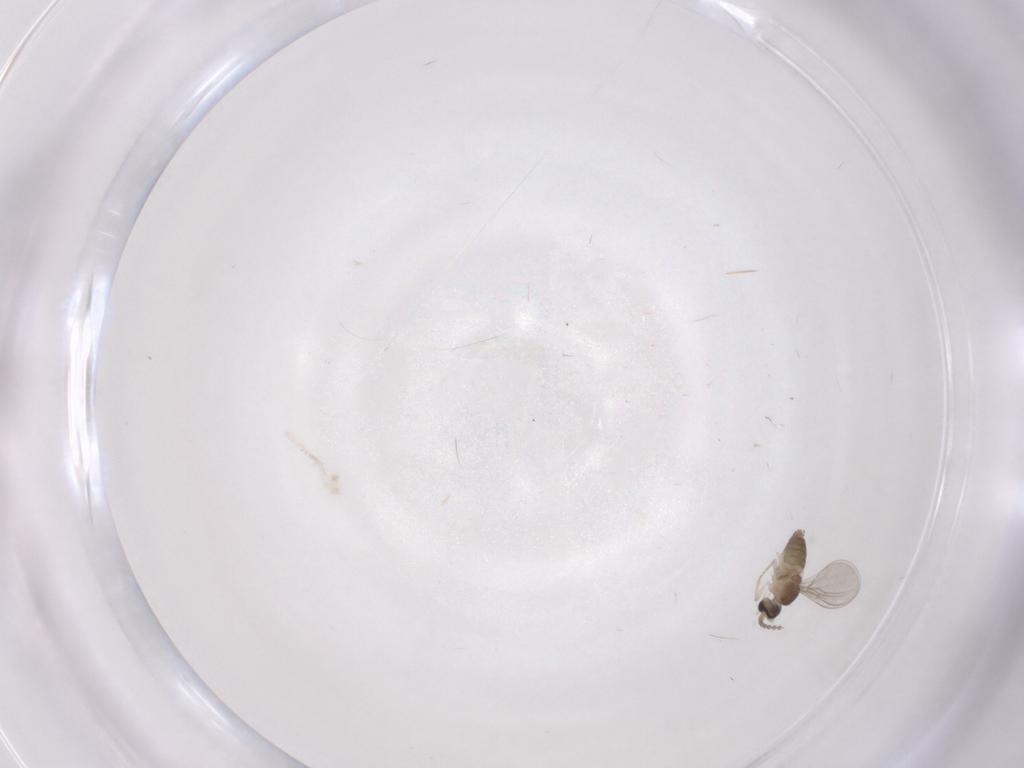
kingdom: Animalia
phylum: Arthropoda
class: Insecta
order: Diptera
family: Cecidomyiidae
